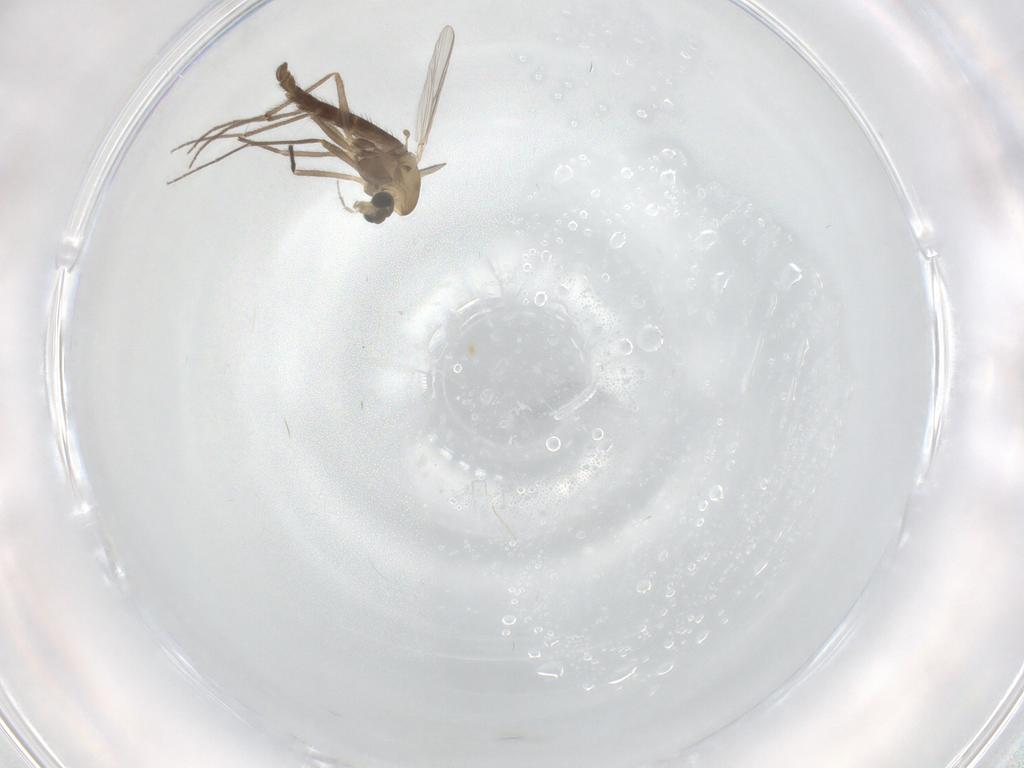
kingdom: Animalia
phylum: Arthropoda
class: Insecta
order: Diptera
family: Chironomidae
